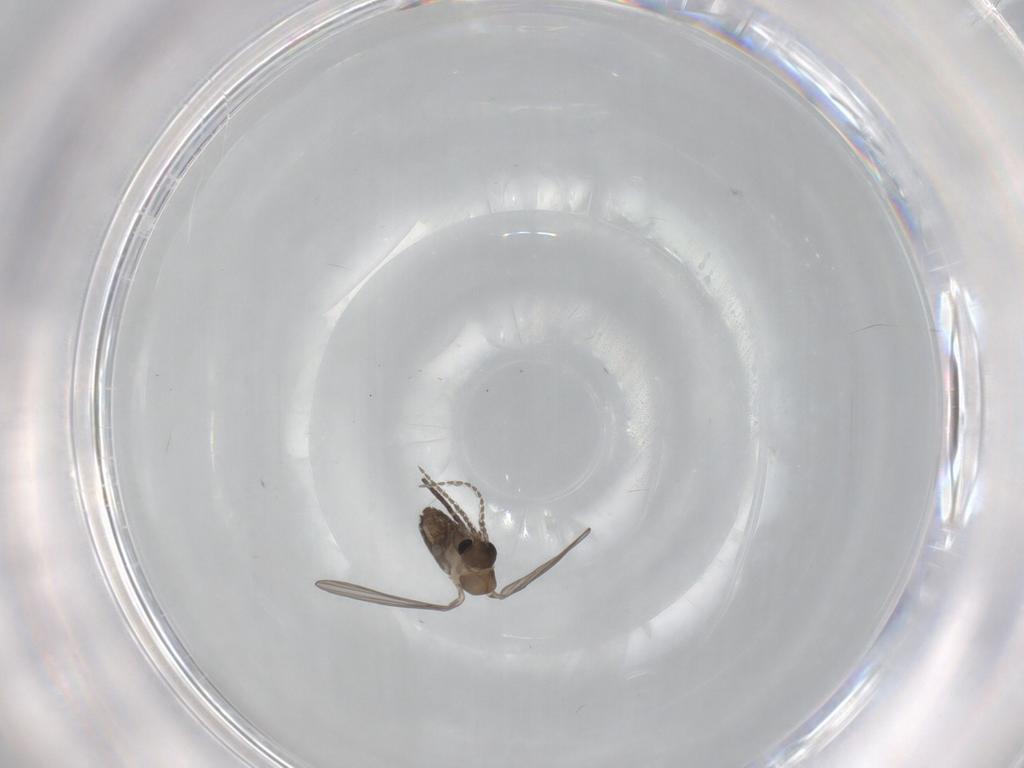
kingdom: Animalia
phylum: Arthropoda
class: Insecta
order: Diptera
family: Psychodidae
